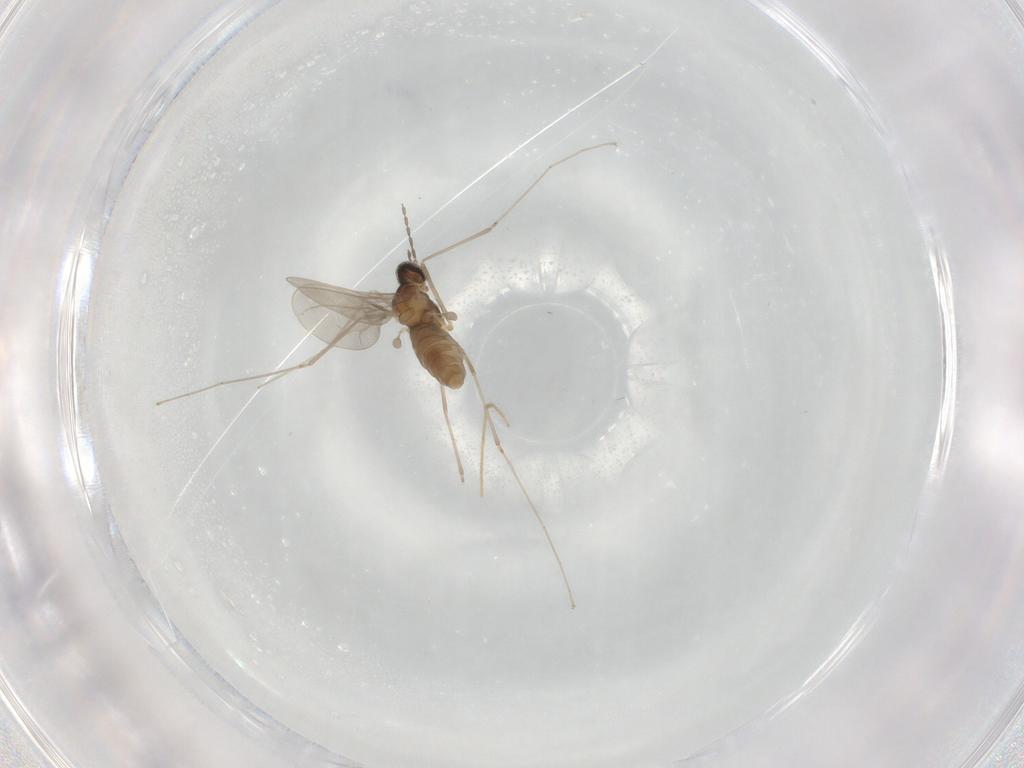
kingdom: Animalia
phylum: Arthropoda
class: Insecta
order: Diptera
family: Cecidomyiidae
